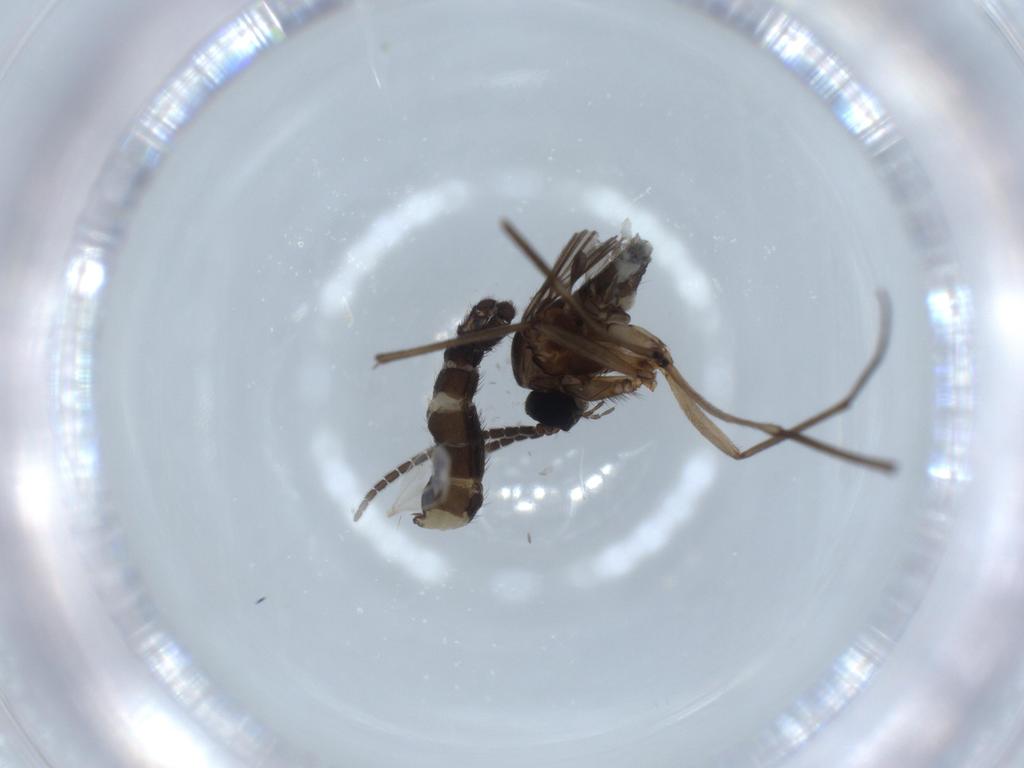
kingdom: Animalia
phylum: Arthropoda
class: Insecta
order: Diptera
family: Sciaridae
